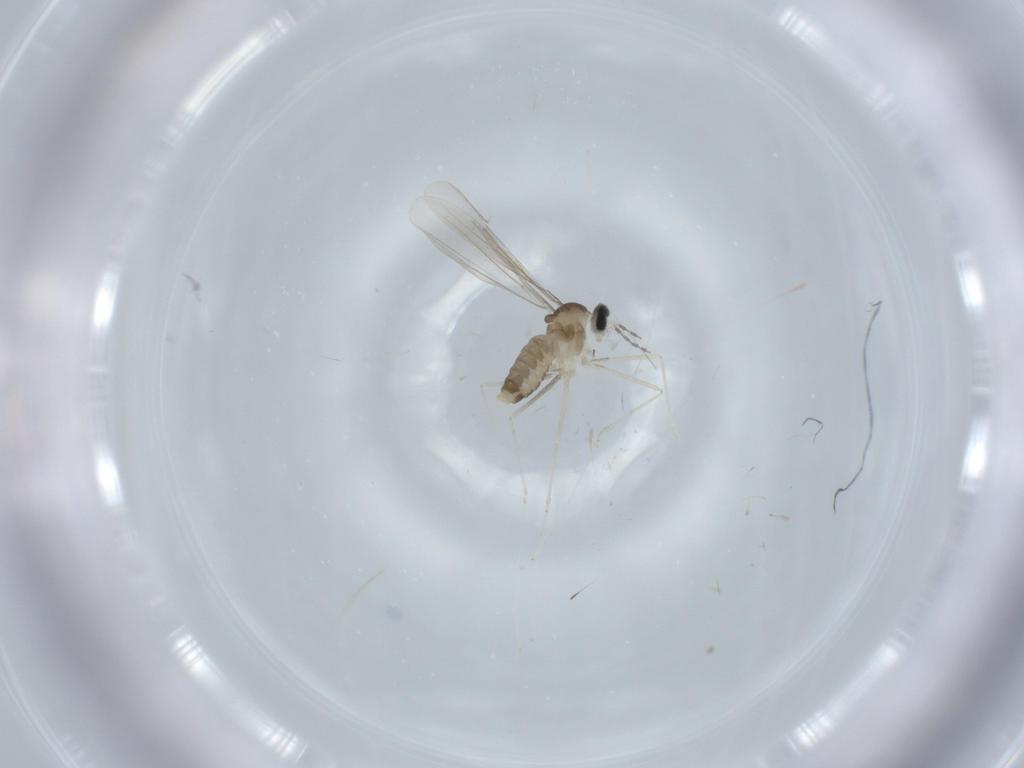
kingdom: Animalia
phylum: Arthropoda
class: Insecta
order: Diptera
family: Cecidomyiidae
